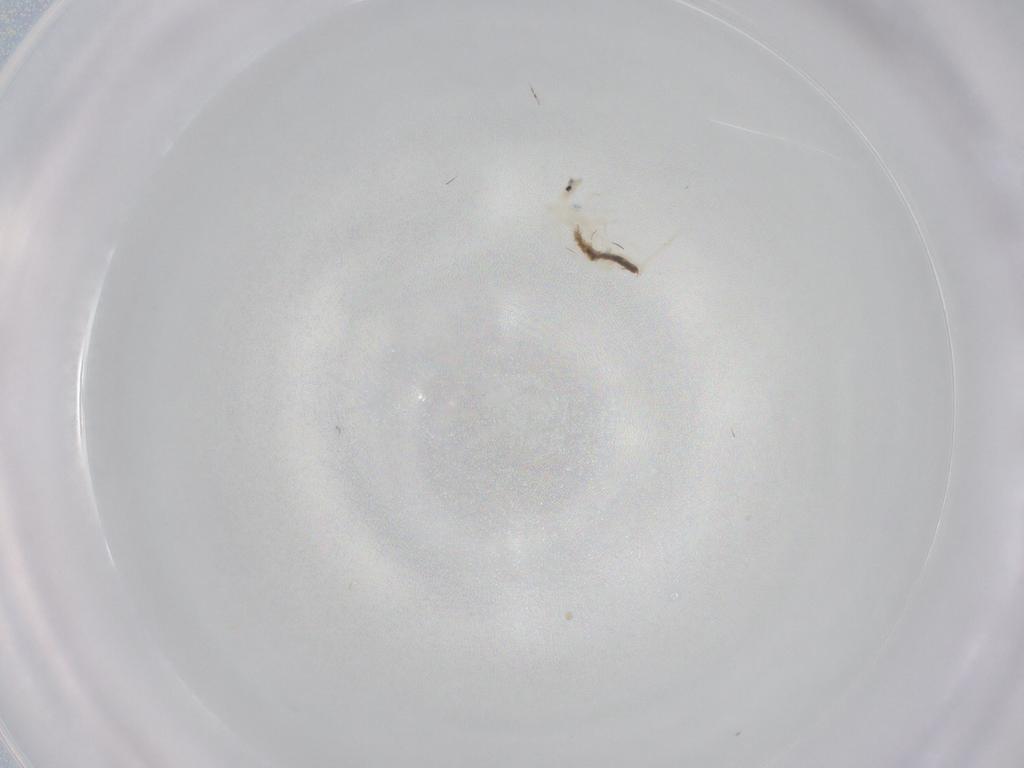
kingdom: Animalia
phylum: Arthropoda
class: Collembola
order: Entomobryomorpha
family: Entomobryidae
